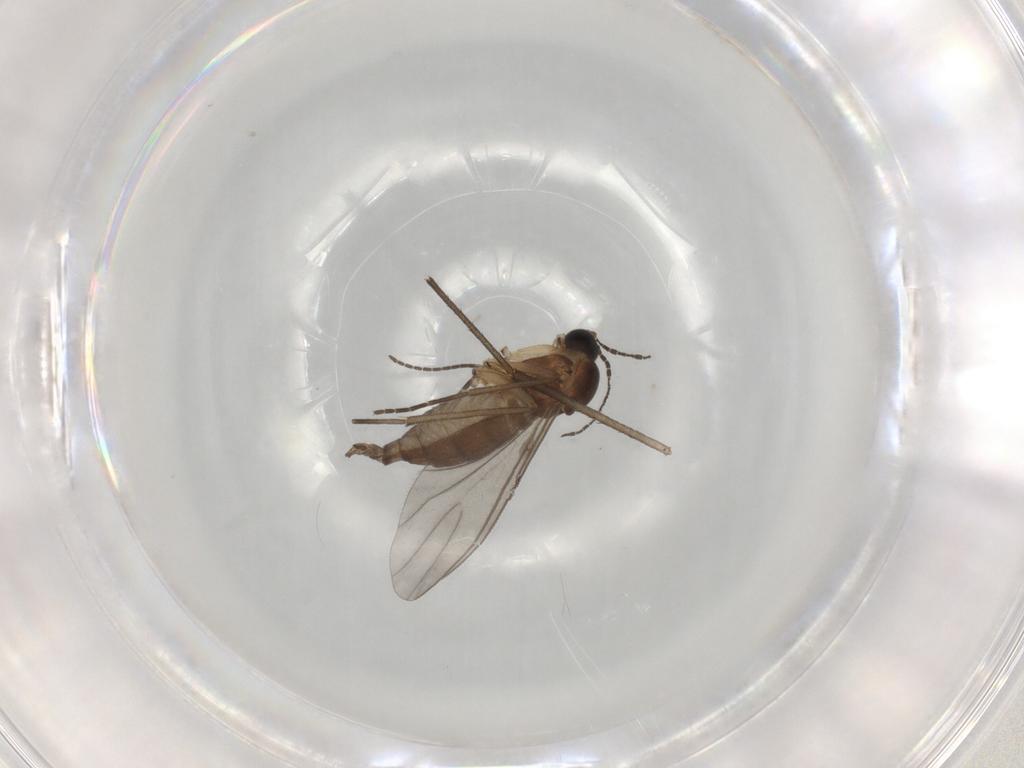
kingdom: Animalia
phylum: Arthropoda
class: Insecta
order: Diptera
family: Sciaridae
